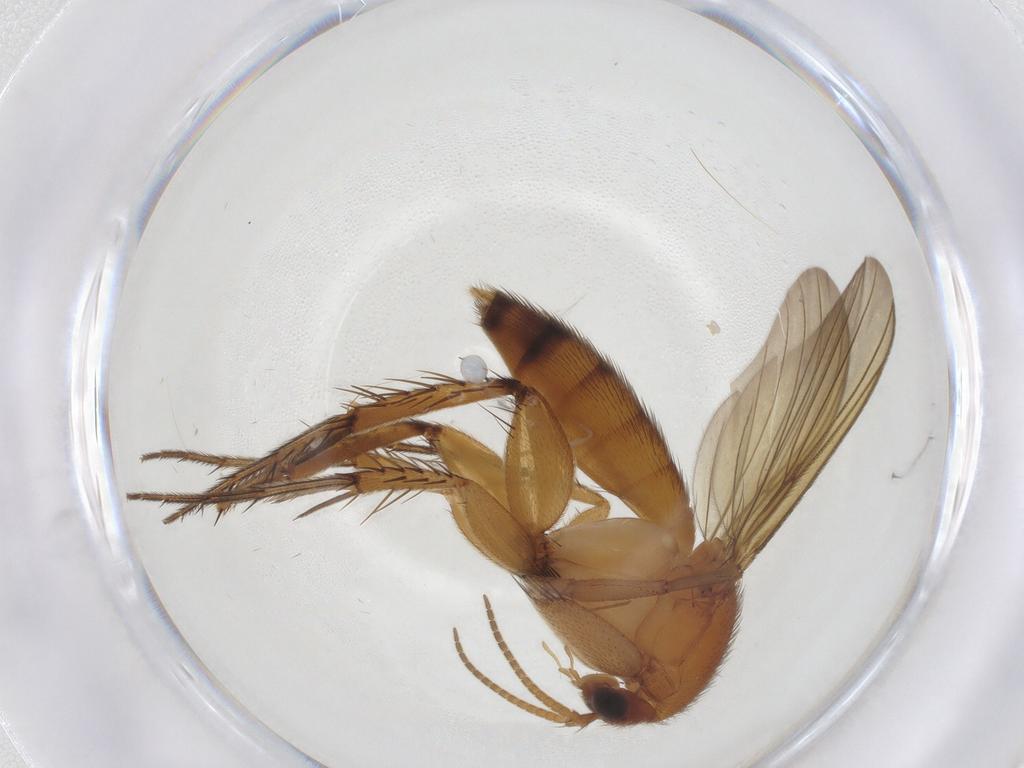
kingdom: Animalia
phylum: Arthropoda
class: Insecta
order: Diptera
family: Mycetophilidae
